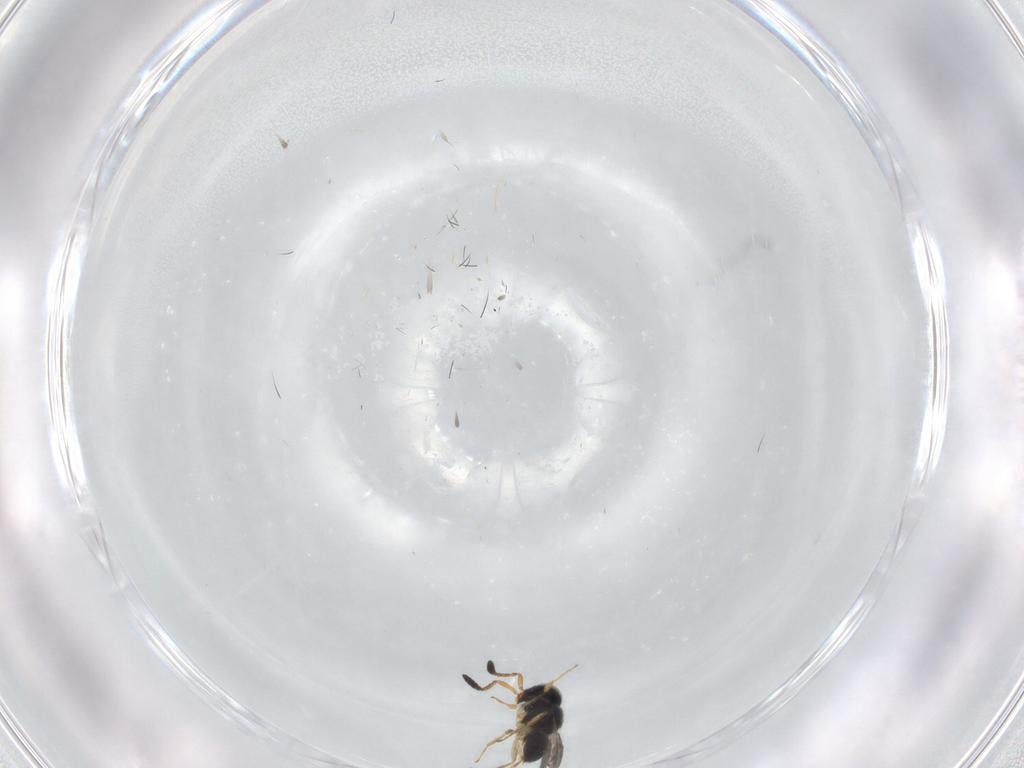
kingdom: Animalia
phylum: Arthropoda
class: Insecta
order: Hymenoptera
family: Scelionidae
